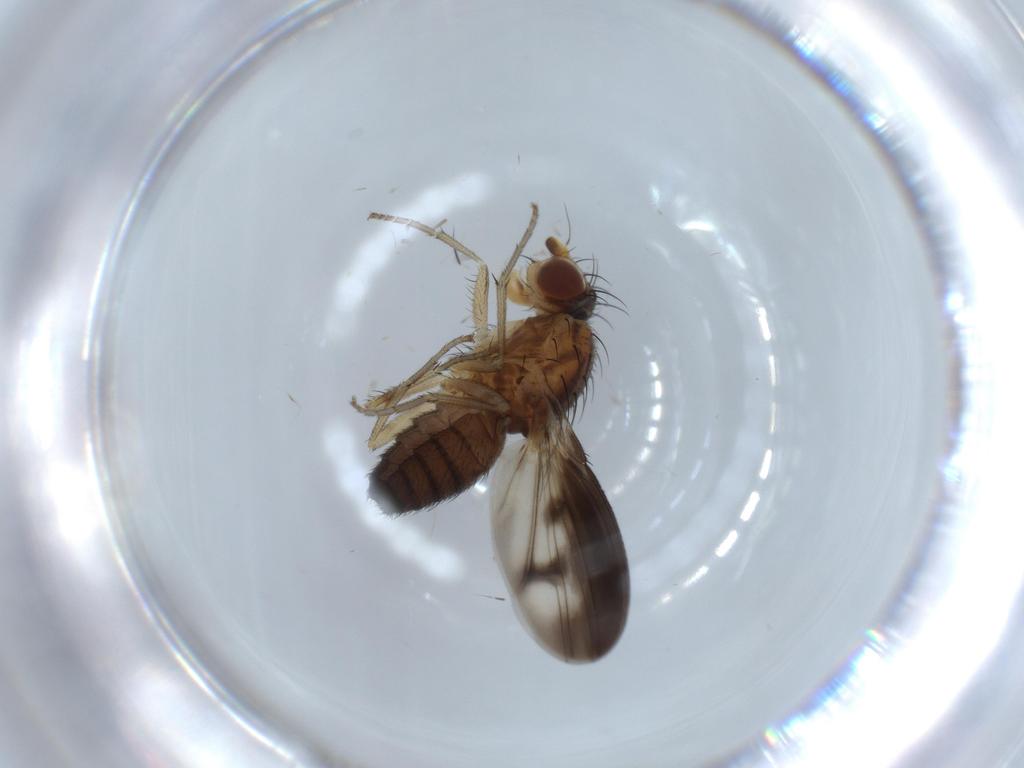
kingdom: Animalia
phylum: Arthropoda
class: Insecta
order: Diptera
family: Heleomyzidae
